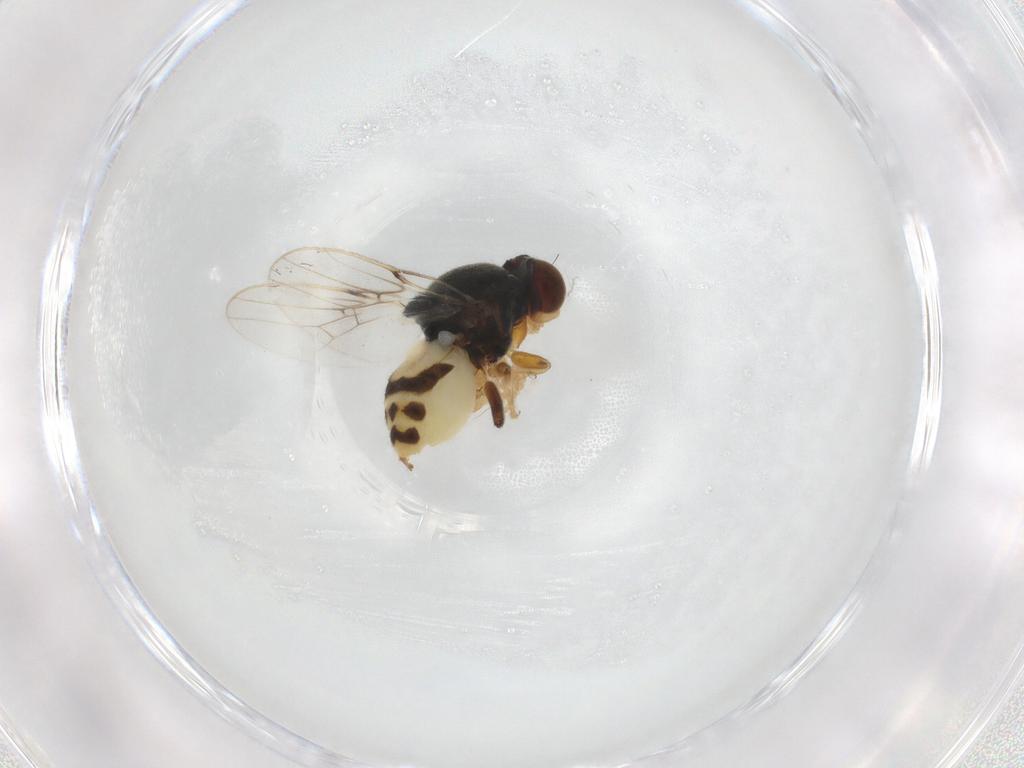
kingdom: Animalia
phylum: Arthropoda
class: Insecta
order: Diptera
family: Chloropidae
